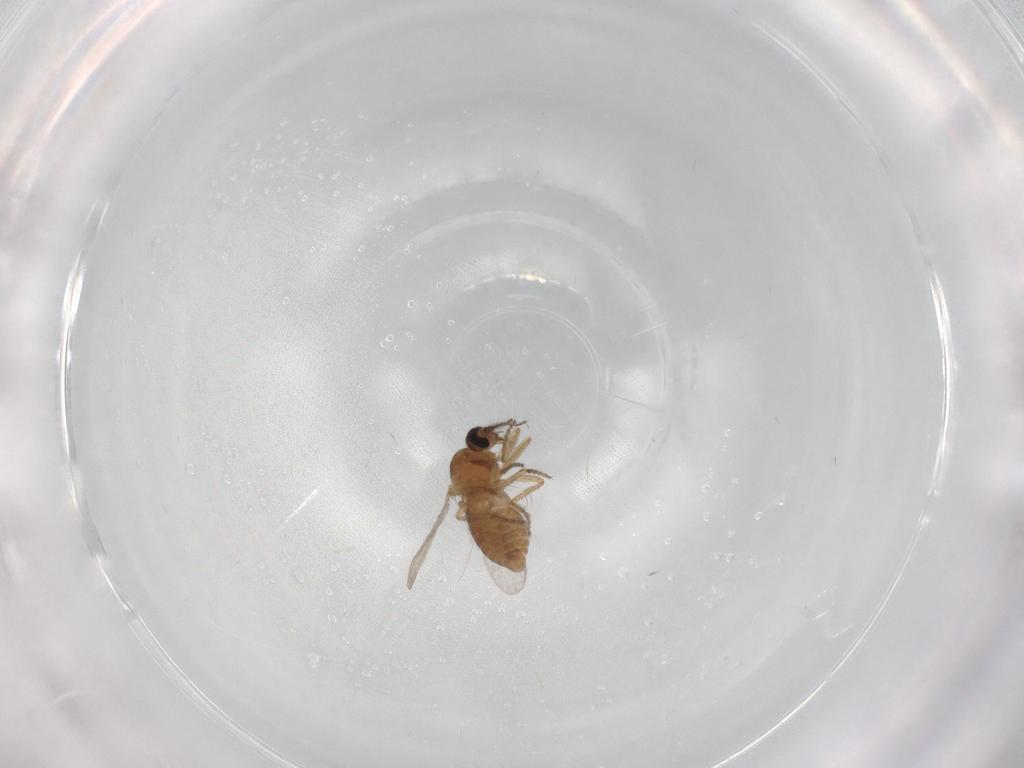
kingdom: Animalia
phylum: Arthropoda
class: Insecta
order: Diptera
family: Ceratopogonidae
